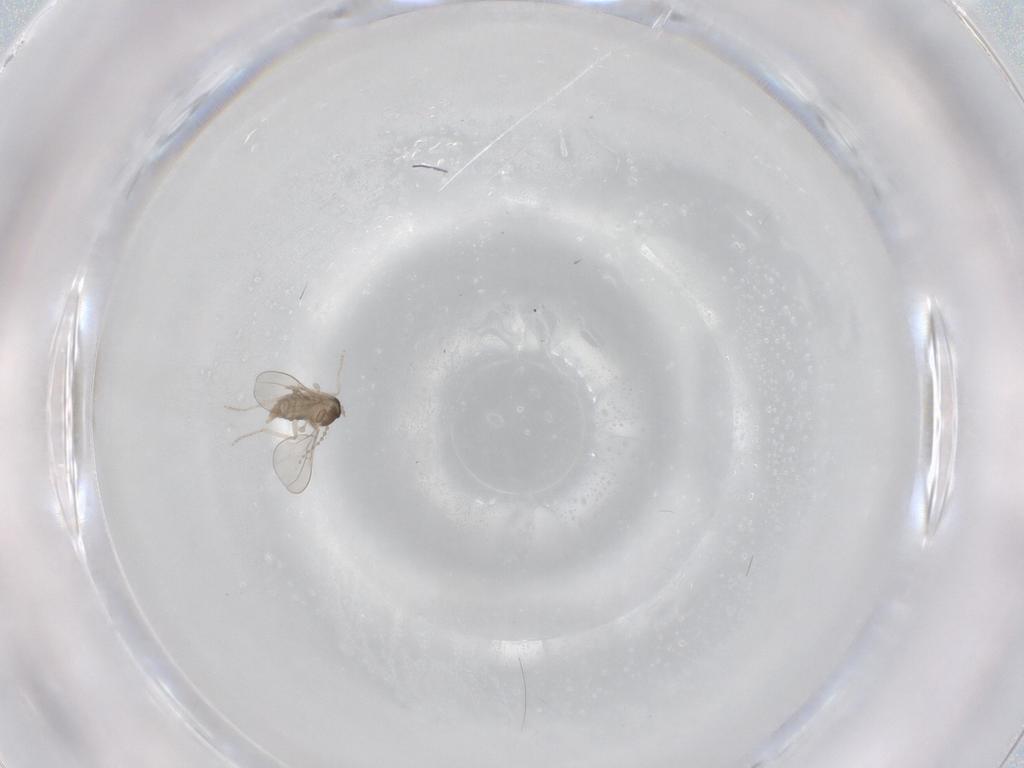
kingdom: Animalia
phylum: Arthropoda
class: Insecta
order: Diptera
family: Cecidomyiidae
